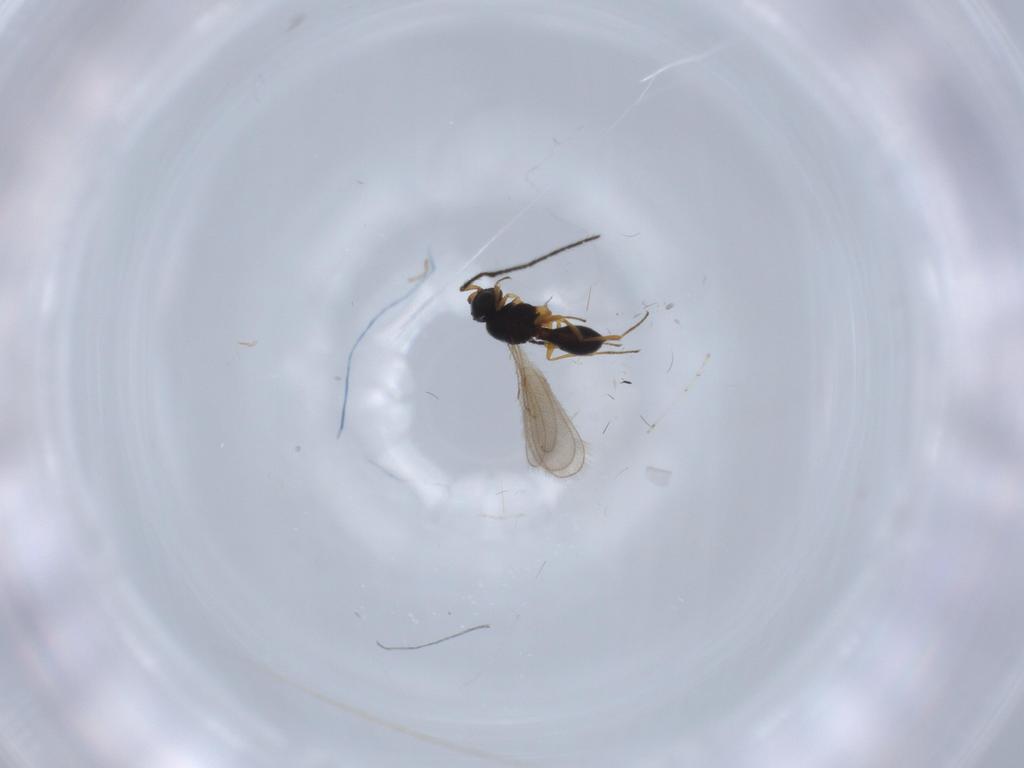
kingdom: Animalia
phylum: Arthropoda
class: Insecta
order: Hymenoptera
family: Scelionidae
